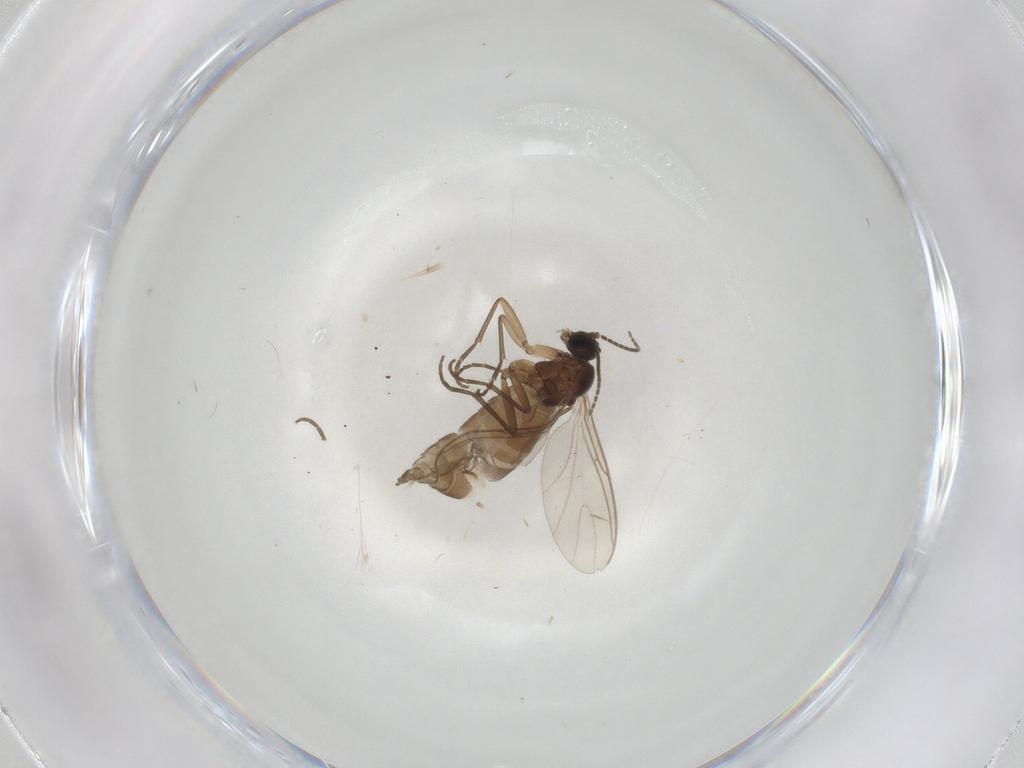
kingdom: Animalia
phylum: Arthropoda
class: Insecta
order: Diptera
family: Sciaridae
